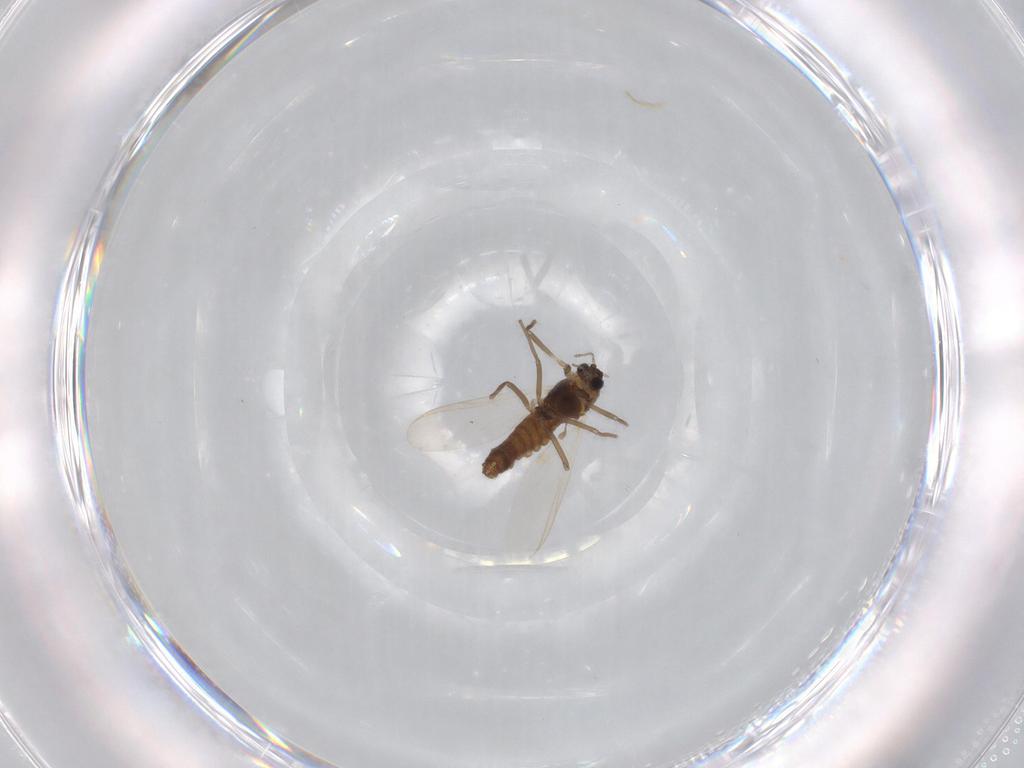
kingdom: Animalia
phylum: Arthropoda
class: Insecta
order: Diptera
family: Chironomidae
